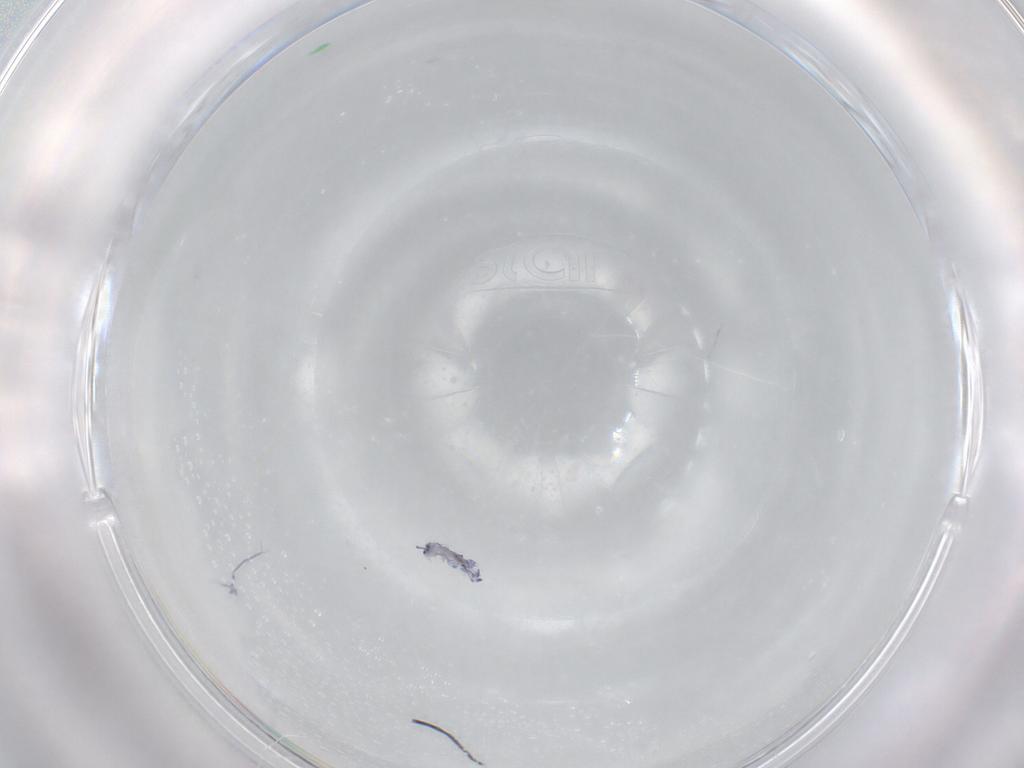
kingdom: Animalia
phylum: Arthropoda
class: Collembola
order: Entomobryomorpha
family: Entomobryidae
